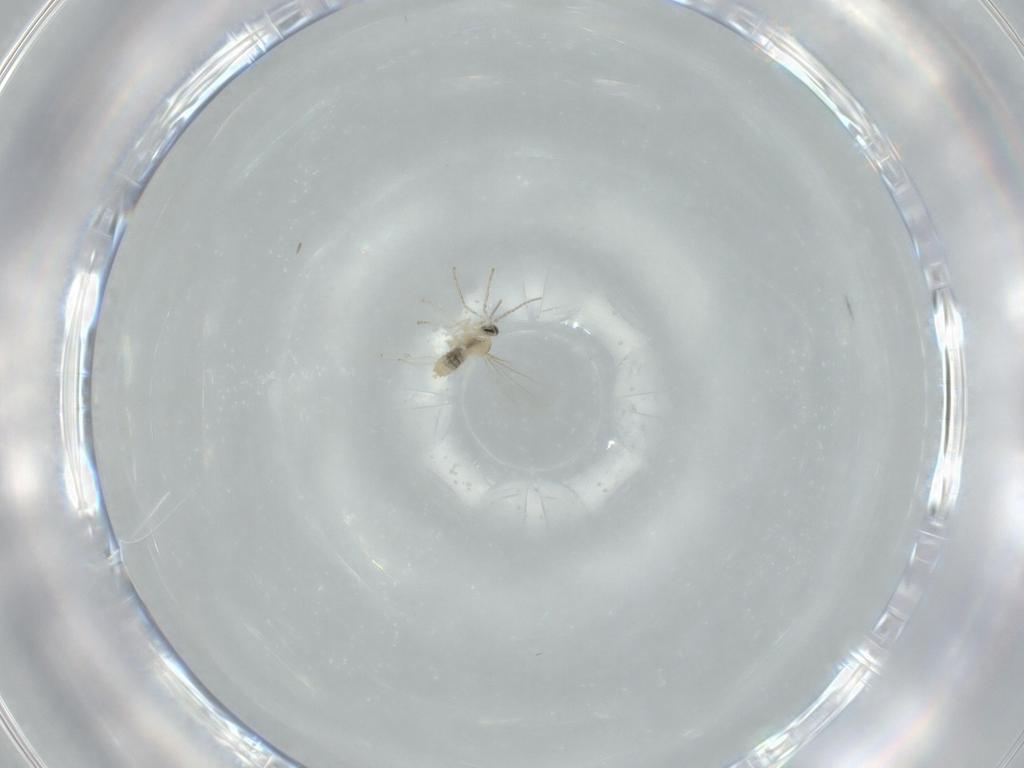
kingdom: Animalia
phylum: Arthropoda
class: Insecta
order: Diptera
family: Cecidomyiidae
